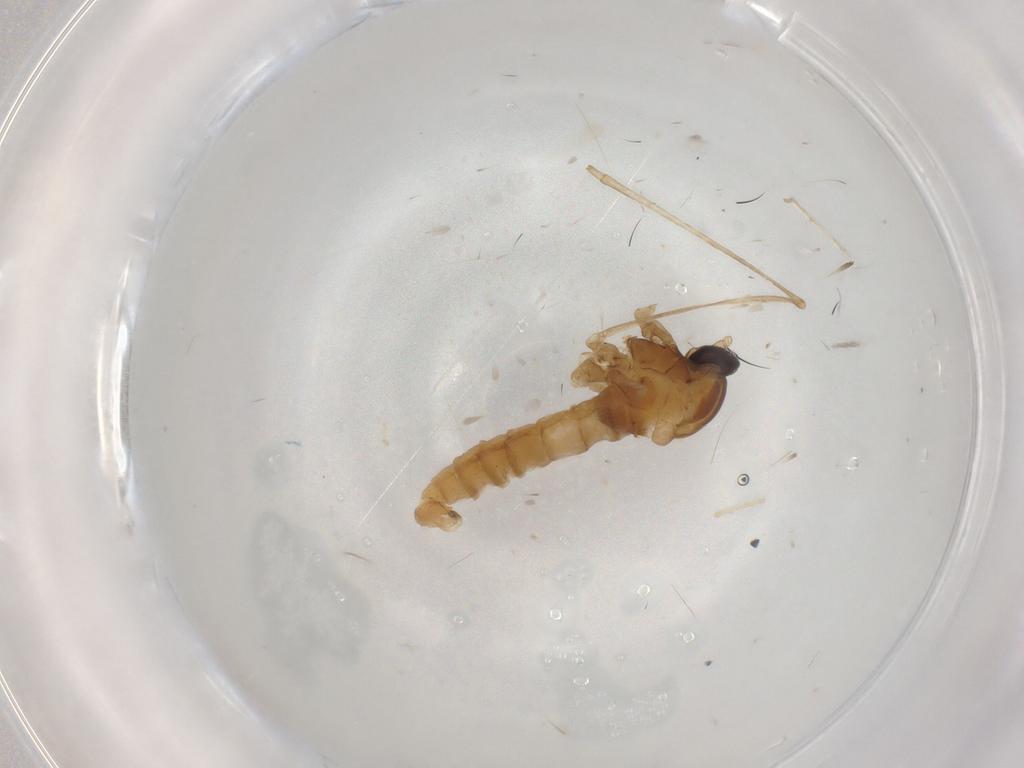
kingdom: Animalia
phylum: Arthropoda
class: Insecta
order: Diptera
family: Cecidomyiidae
